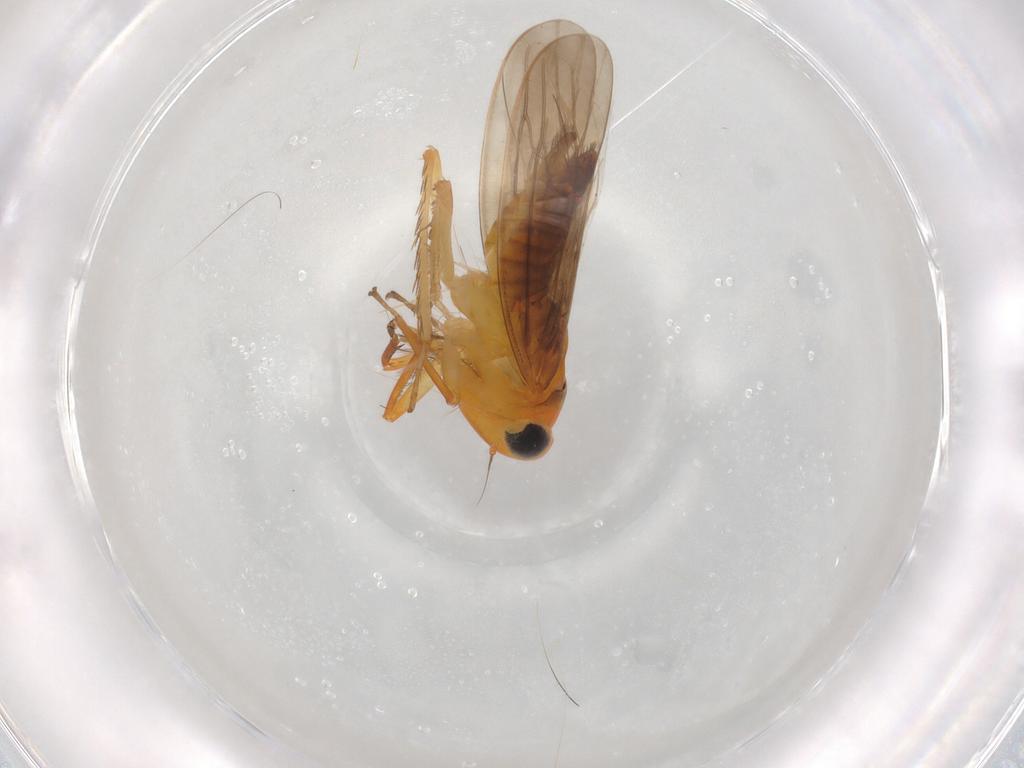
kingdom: Animalia
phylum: Arthropoda
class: Insecta
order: Hemiptera
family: Cicadellidae
